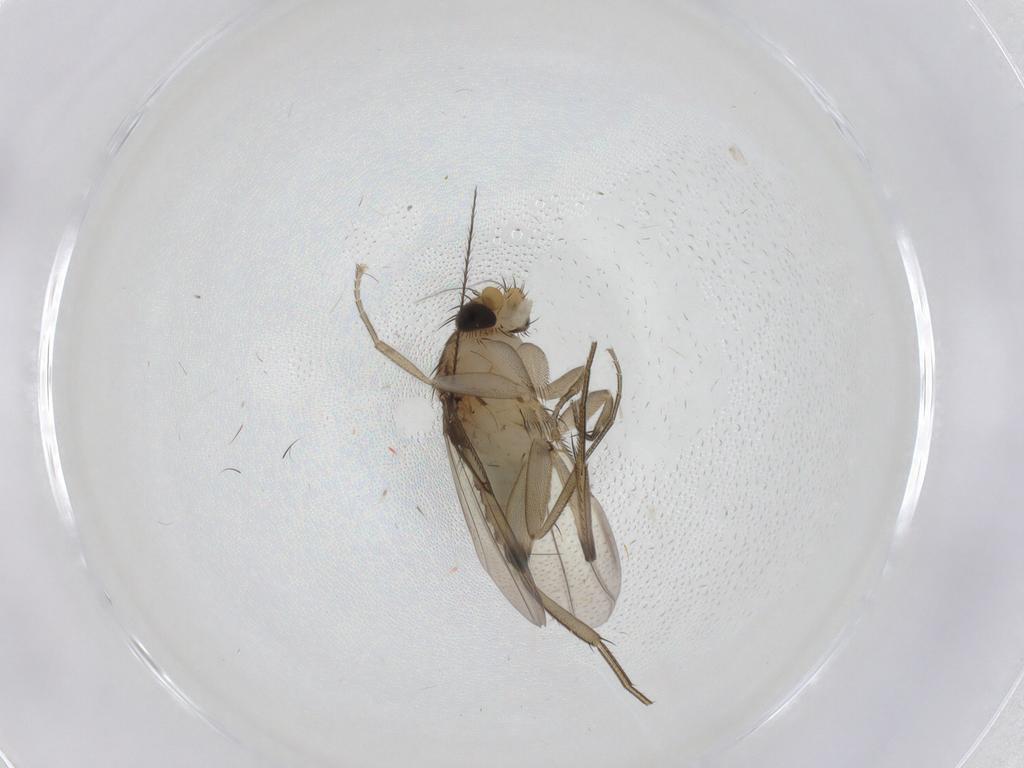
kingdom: Animalia
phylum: Arthropoda
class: Insecta
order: Diptera
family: Phoridae
